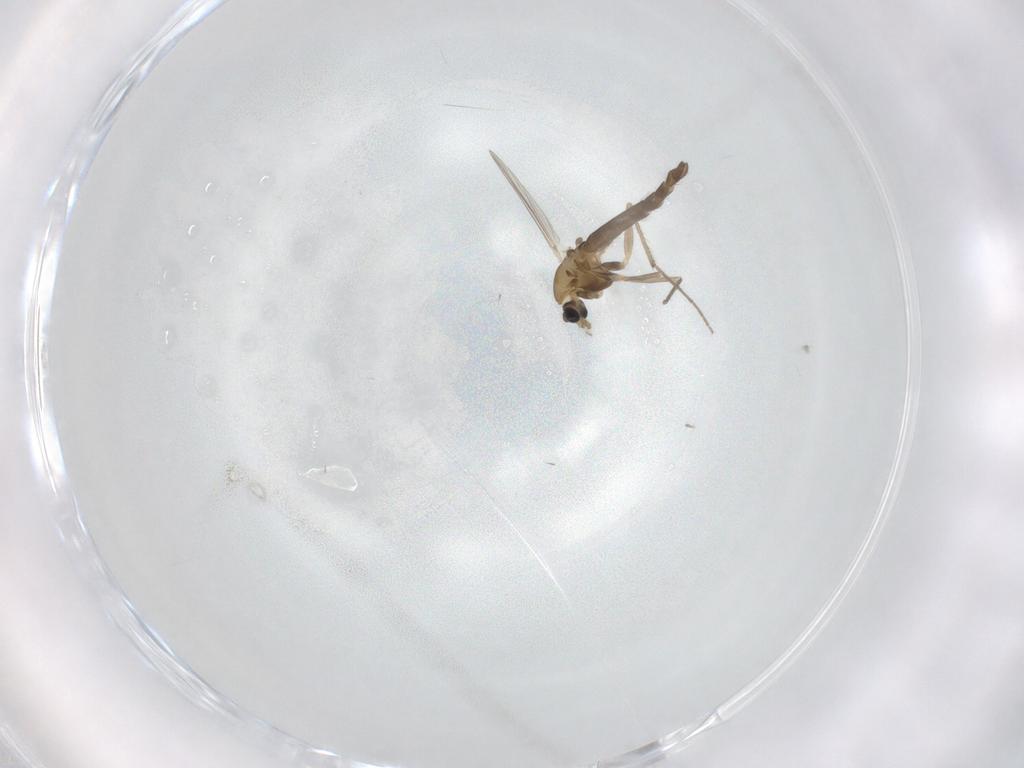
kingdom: Animalia
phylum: Arthropoda
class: Insecta
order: Diptera
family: Chironomidae
